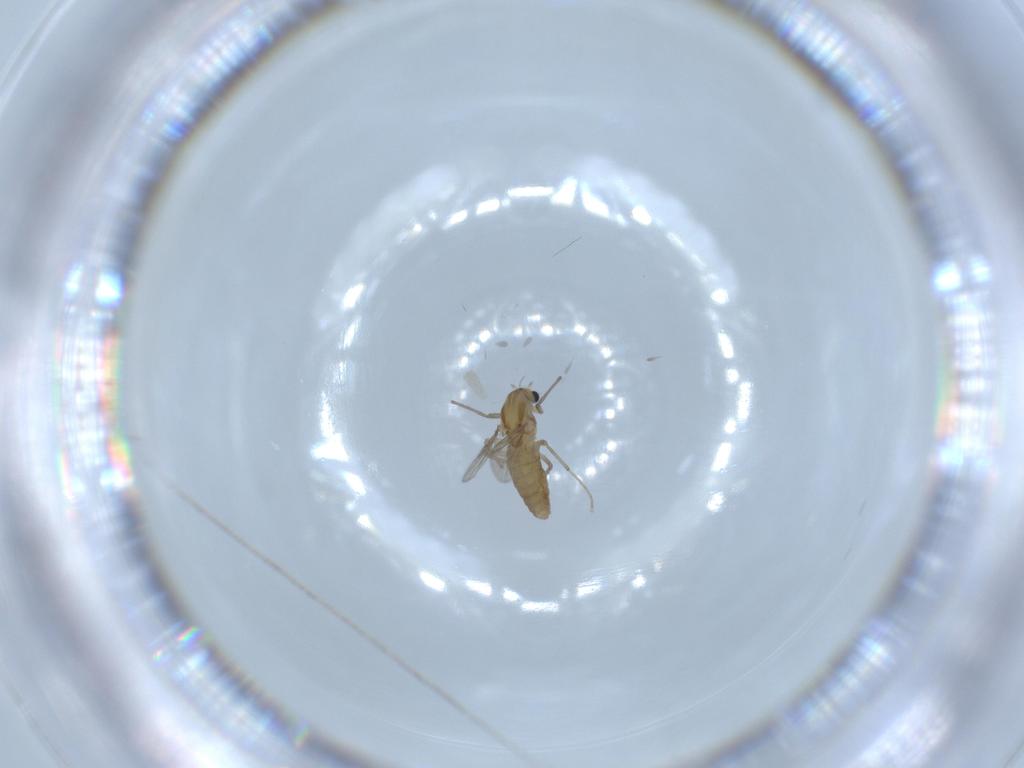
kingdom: Animalia
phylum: Arthropoda
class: Insecta
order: Diptera
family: Chironomidae
